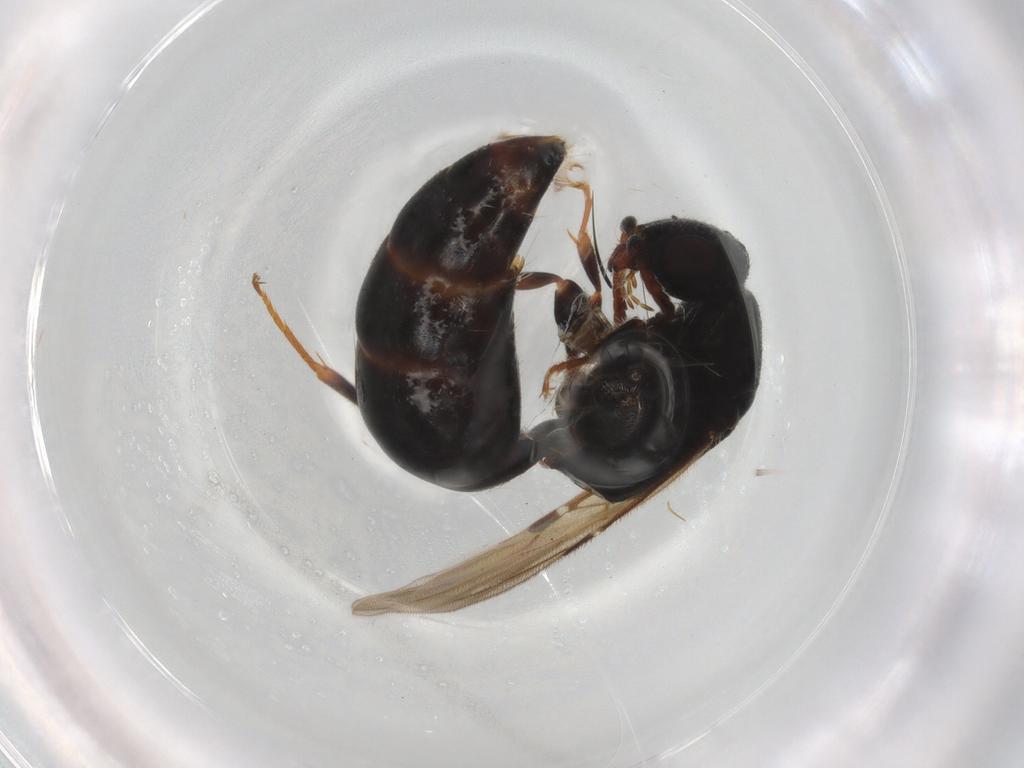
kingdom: Animalia
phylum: Arthropoda
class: Insecta
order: Hymenoptera
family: Bethylidae
